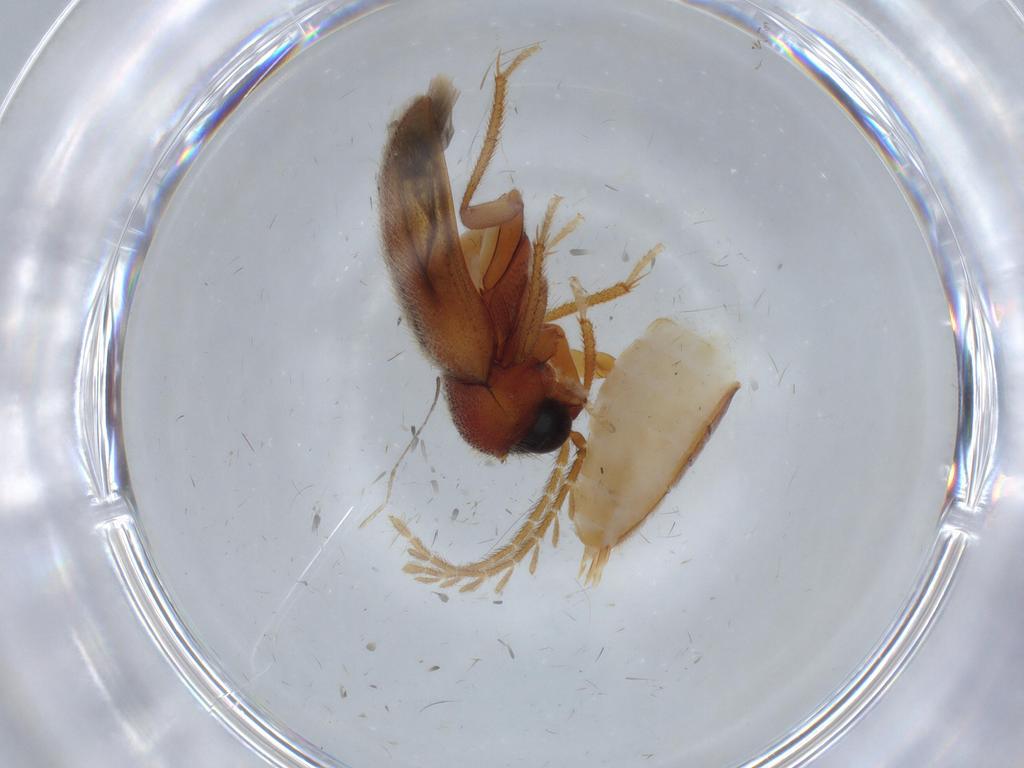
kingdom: Animalia
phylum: Arthropoda
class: Insecta
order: Coleoptera
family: Ptilodactylidae
